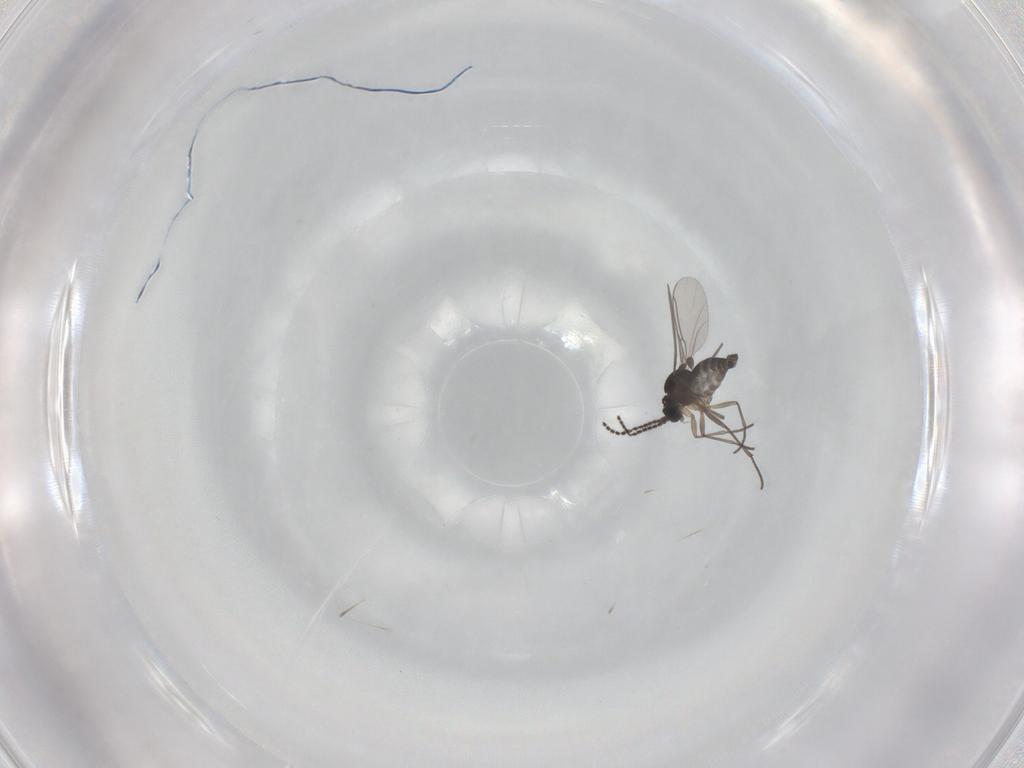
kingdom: Animalia
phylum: Arthropoda
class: Insecta
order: Diptera
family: Sciaridae
